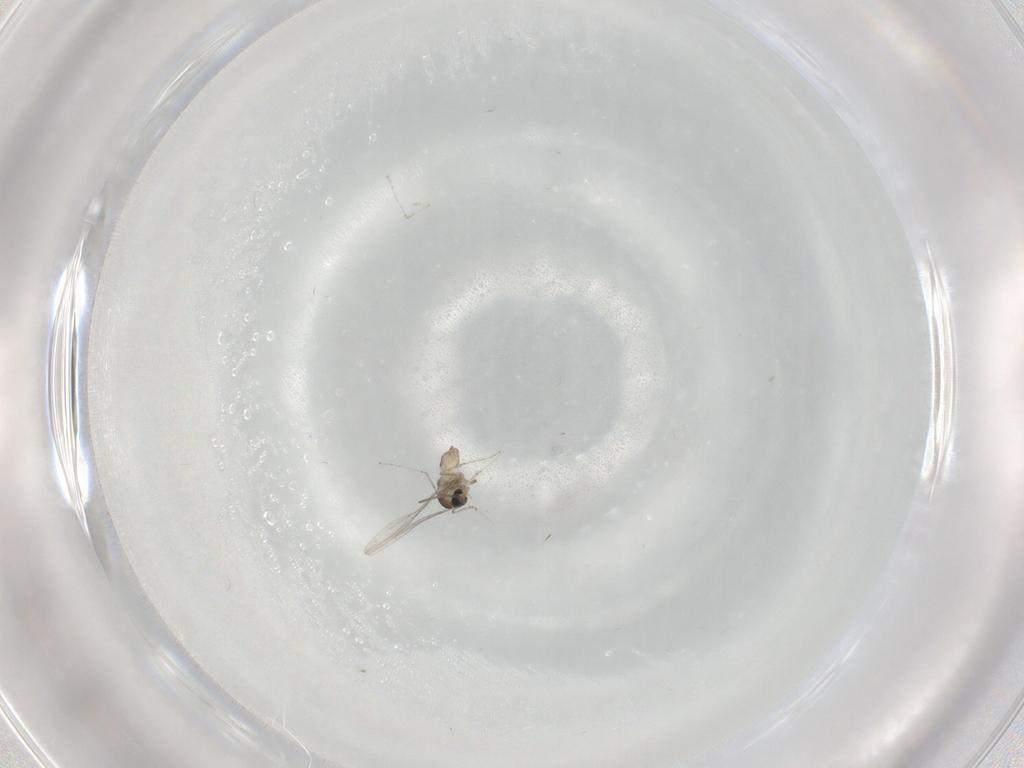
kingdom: Animalia
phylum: Arthropoda
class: Insecta
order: Diptera
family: Cecidomyiidae
